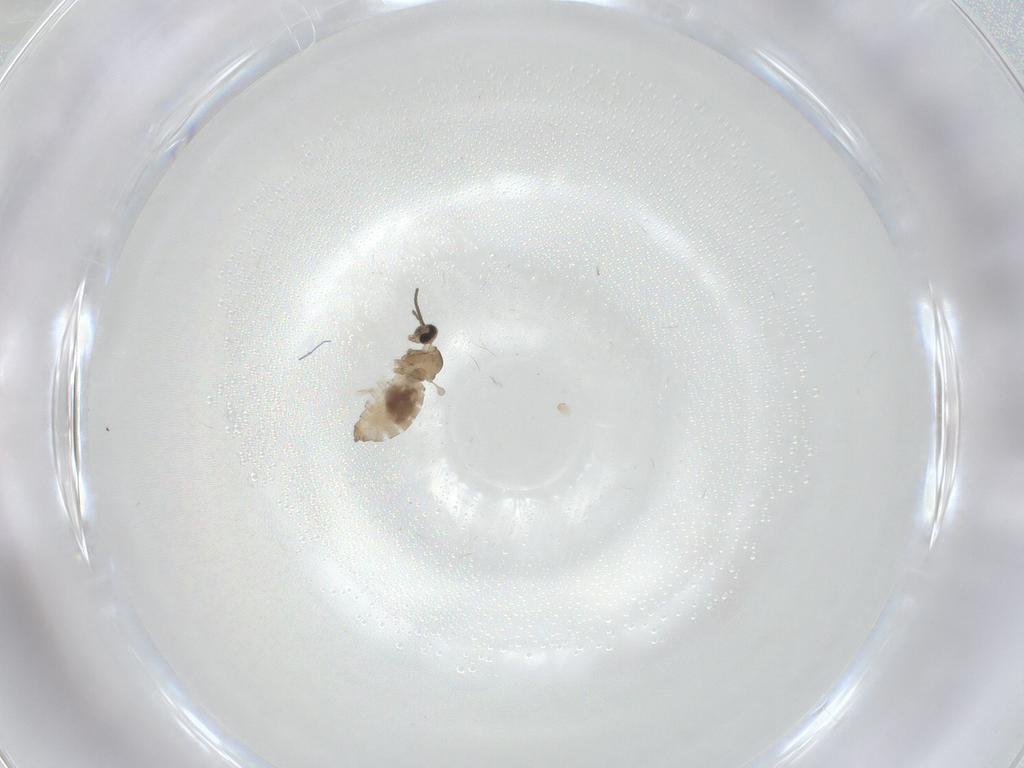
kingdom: Animalia
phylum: Arthropoda
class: Insecta
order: Diptera
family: Cecidomyiidae
